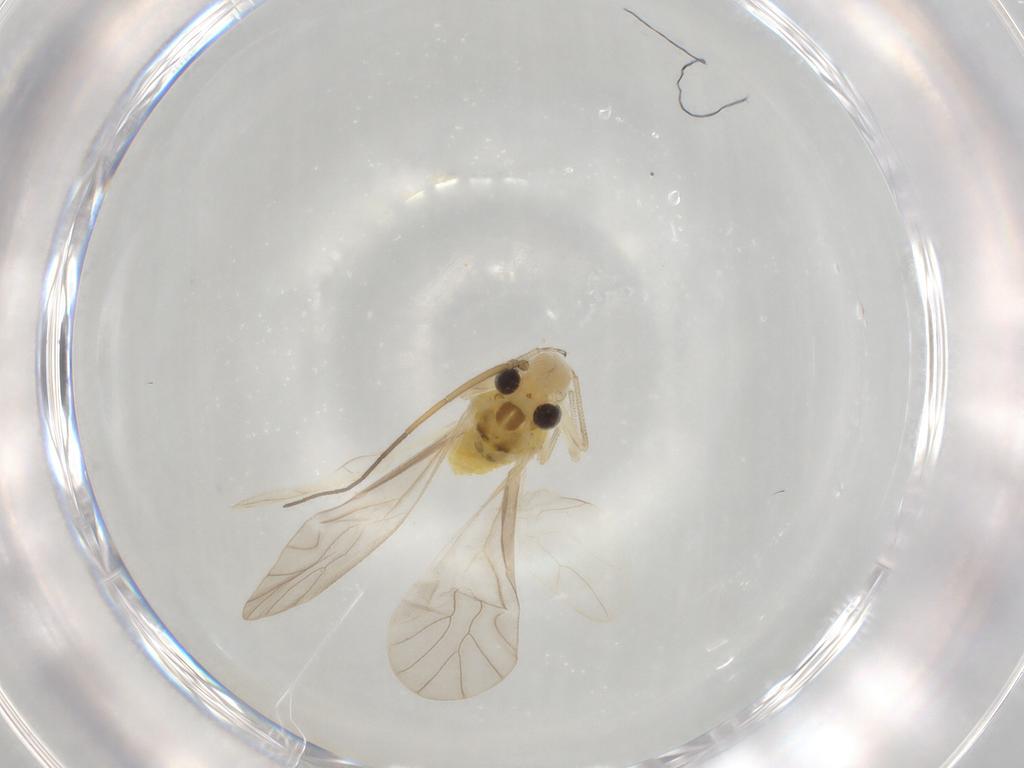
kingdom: Animalia
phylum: Arthropoda
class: Insecta
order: Psocodea
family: Caeciliusidae
